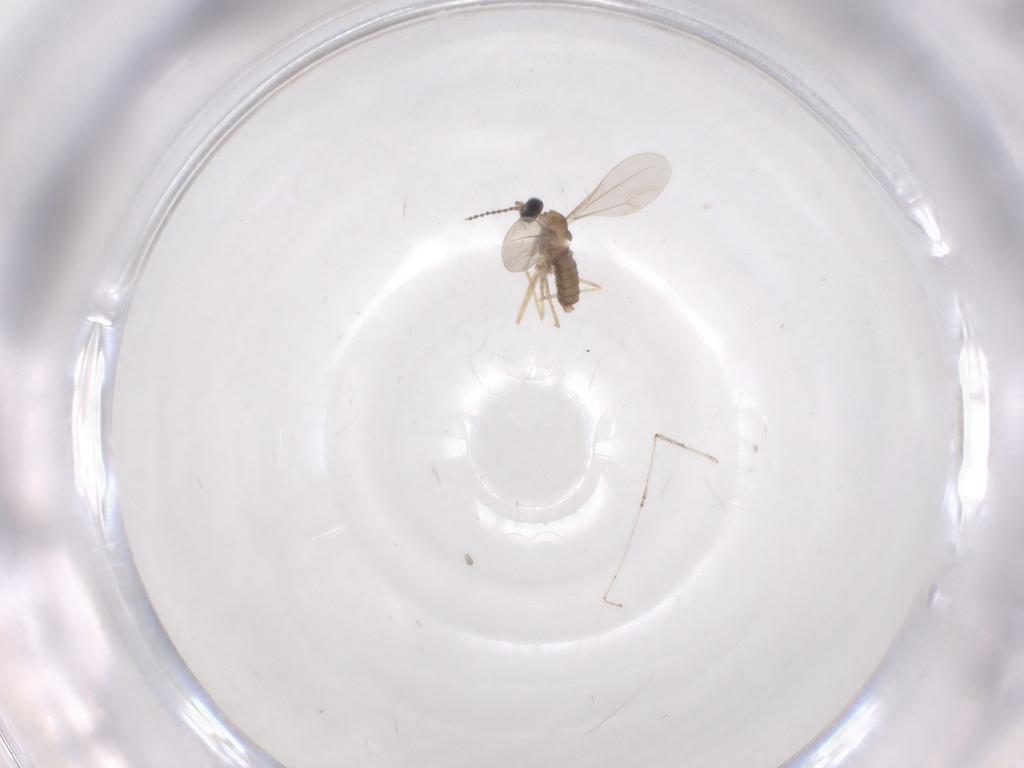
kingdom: Animalia
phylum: Arthropoda
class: Insecta
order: Diptera
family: Cecidomyiidae
